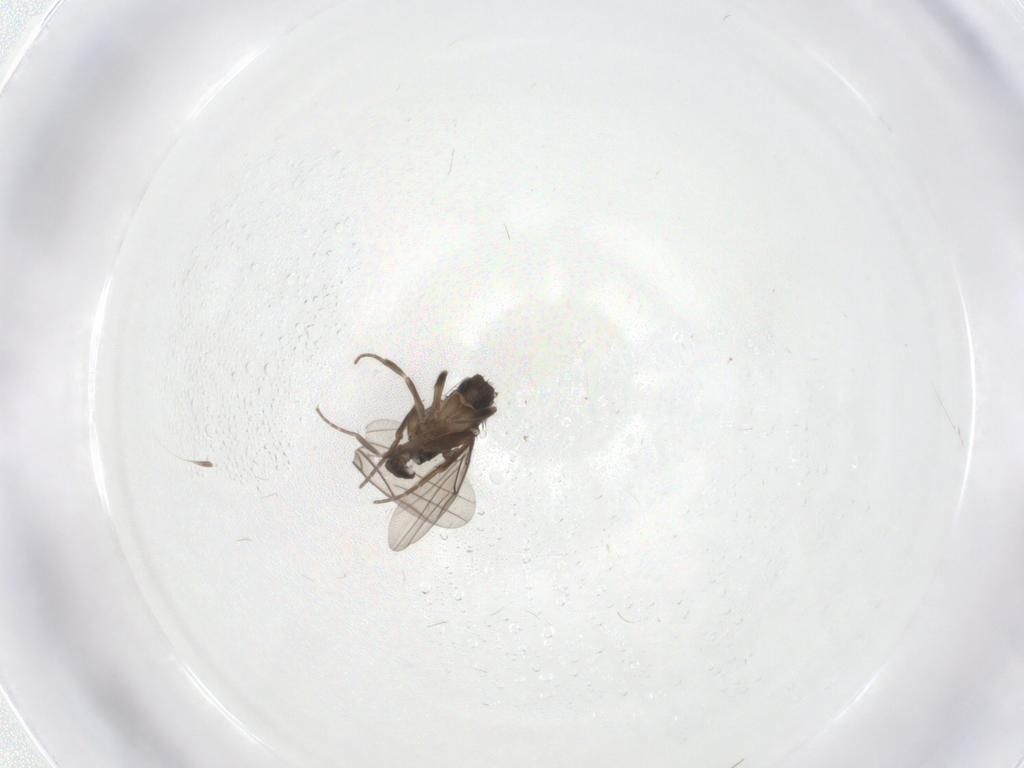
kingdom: Animalia
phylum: Arthropoda
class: Insecta
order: Diptera
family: Phoridae
